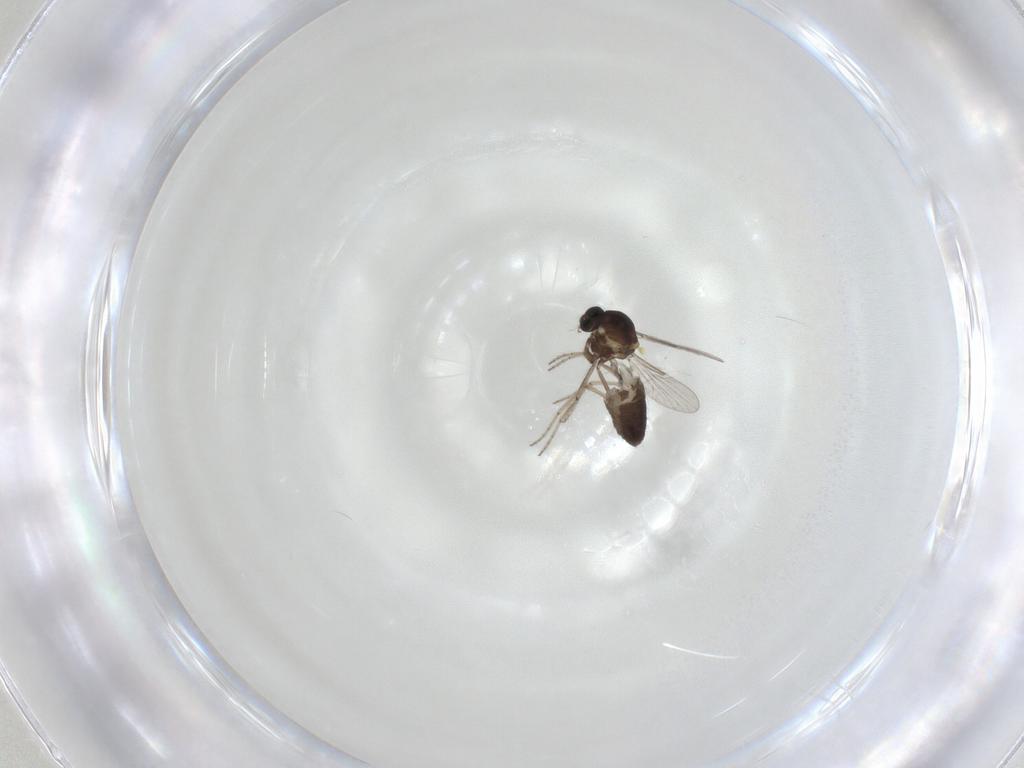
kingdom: Animalia
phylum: Arthropoda
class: Insecta
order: Diptera
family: Ceratopogonidae
